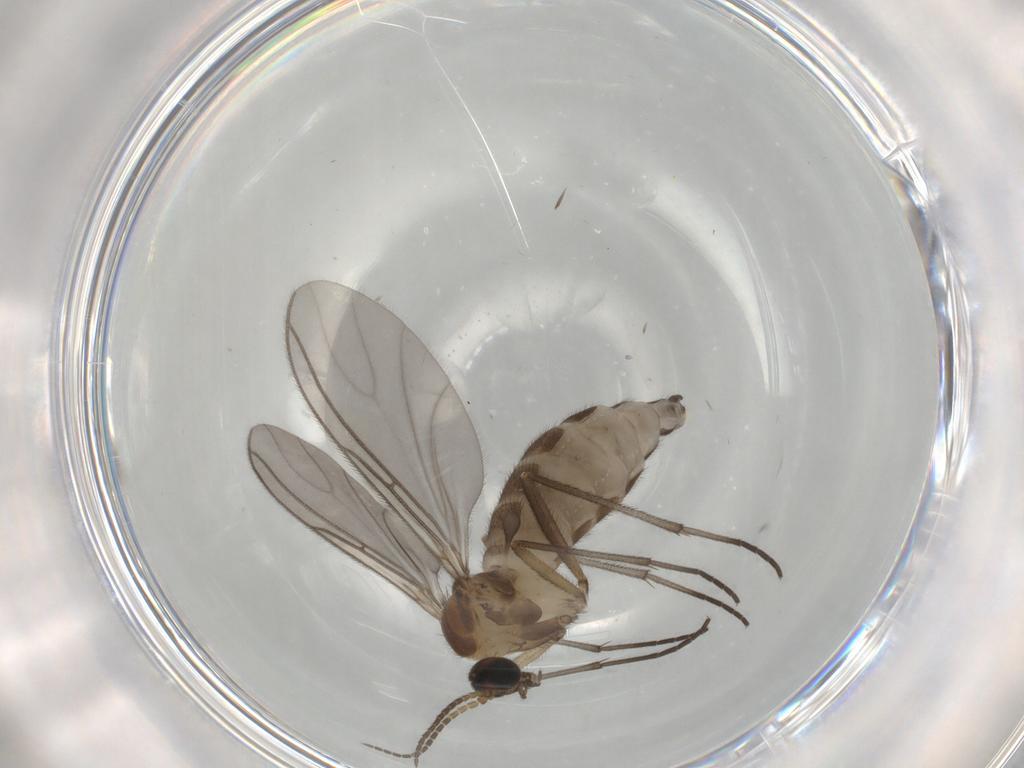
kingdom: Animalia
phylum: Arthropoda
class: Insecta
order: Diptera
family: Sciaridae
